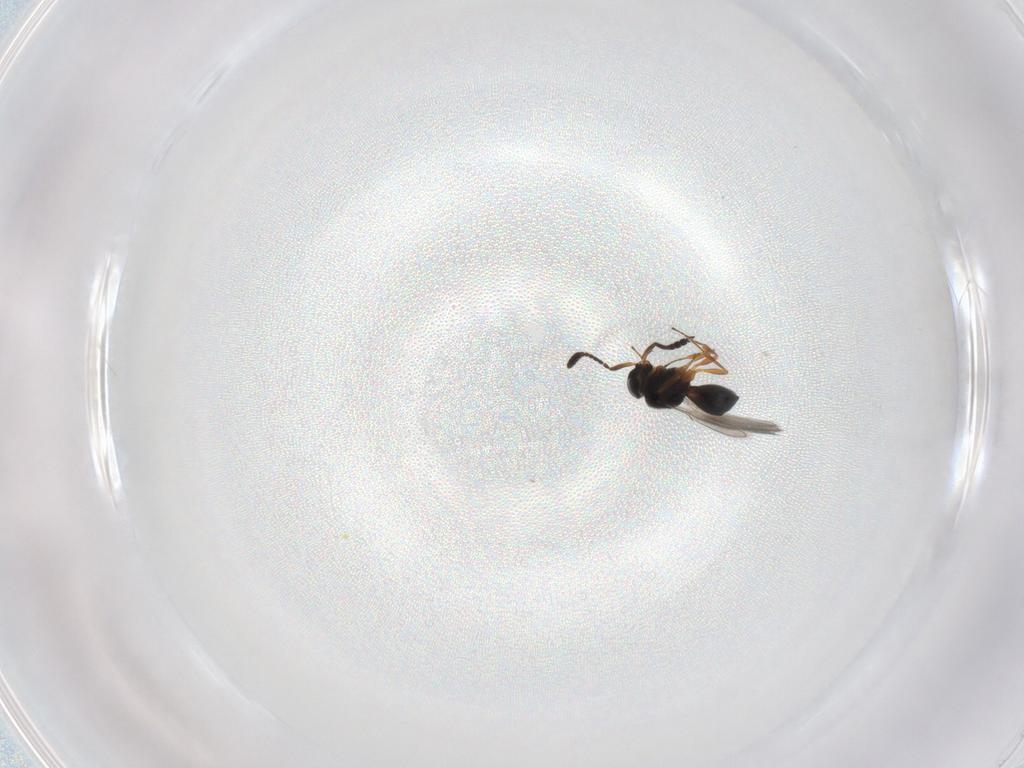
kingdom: Animalia
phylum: Arthropoda
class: Insecta
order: Hymenoptera
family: Scelionidae
